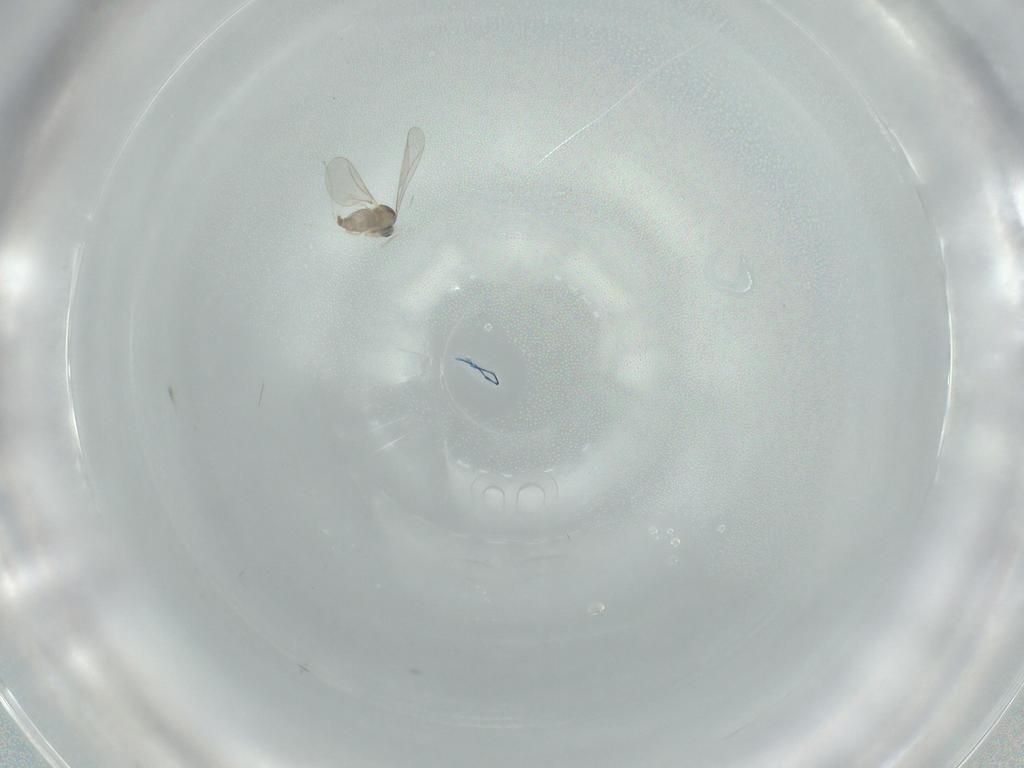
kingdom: Animalia
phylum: Arthropoda
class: Insecta
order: Diptera
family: Cecidomyiidae
